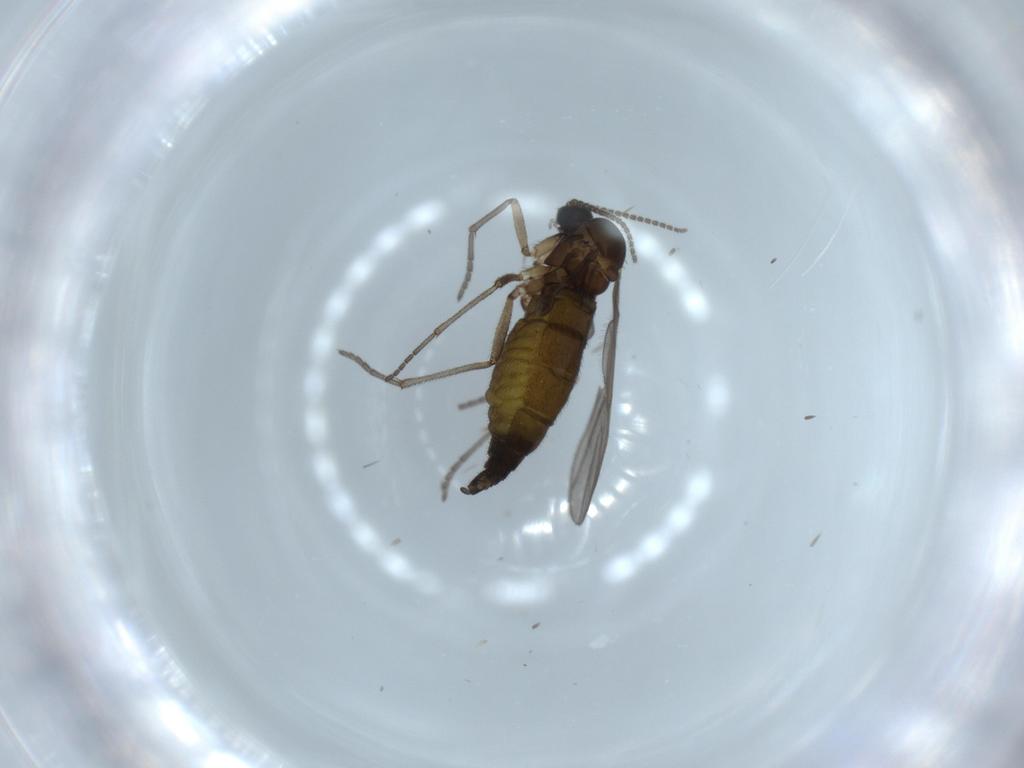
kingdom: Animalia
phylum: Arthropoda
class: Insecta
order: Diptera
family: Sciaridae
